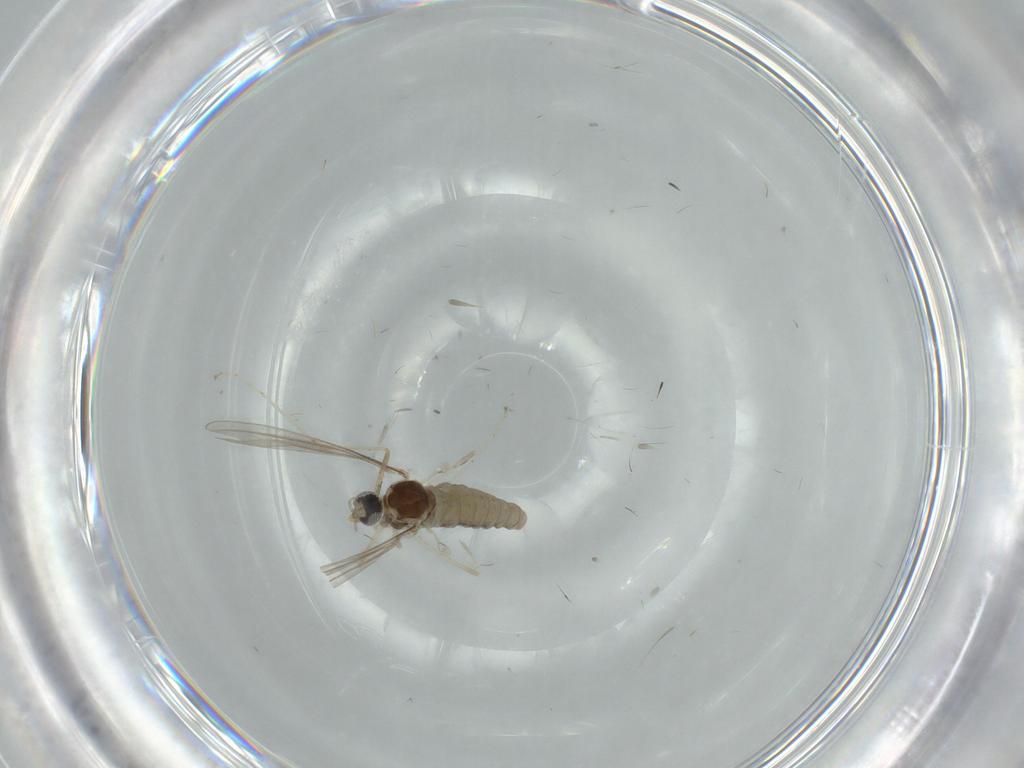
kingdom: Animalia
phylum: Arthropoda
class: Insecta
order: Diptera
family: Cecidomyiidae
